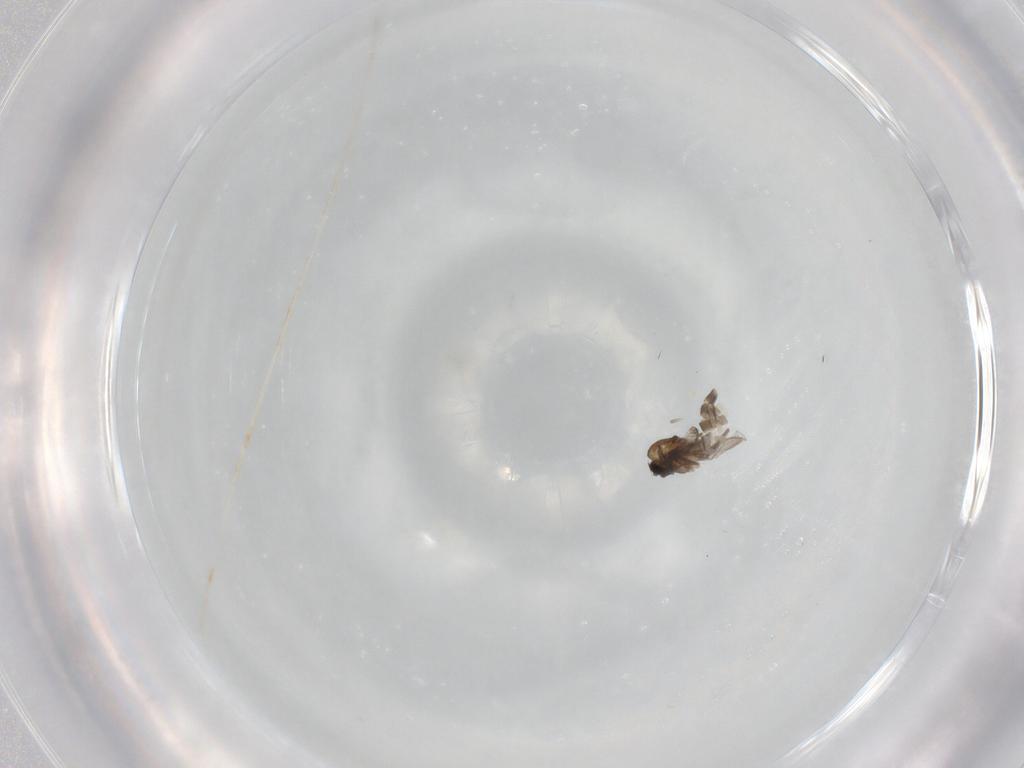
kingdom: Animalia
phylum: Arthropoda
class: Insecta
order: Diptera
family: Chironomidae
